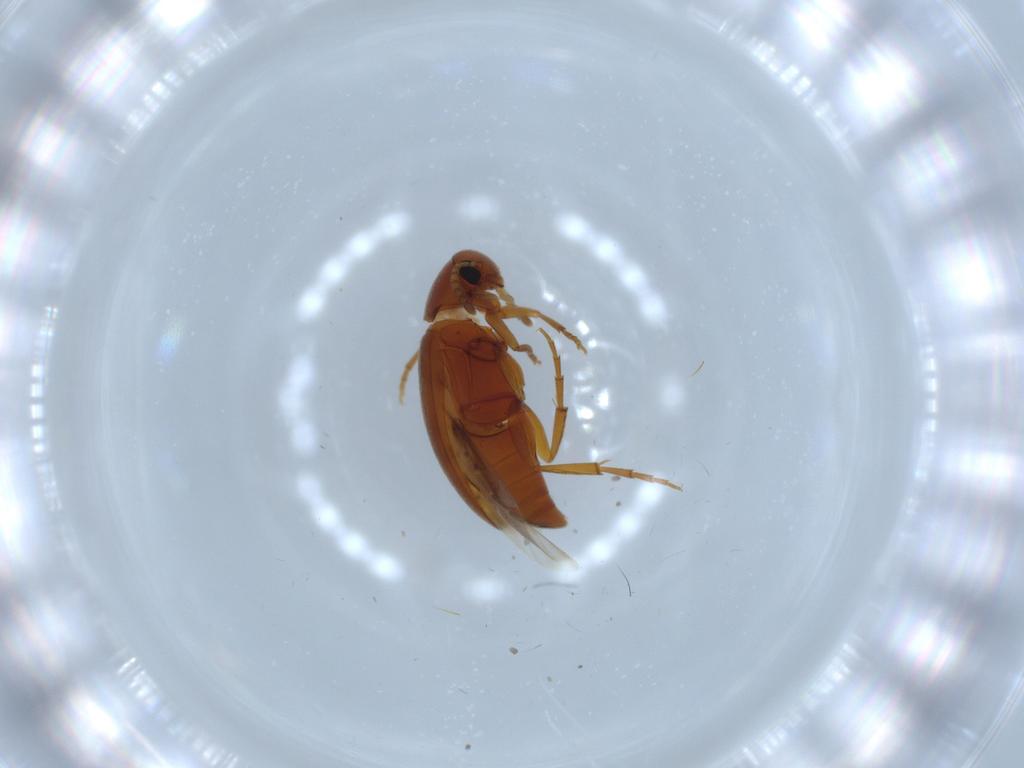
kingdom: Animalia
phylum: Arthropoda
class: Insecta
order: Coleoptera
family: Scraptiidae
